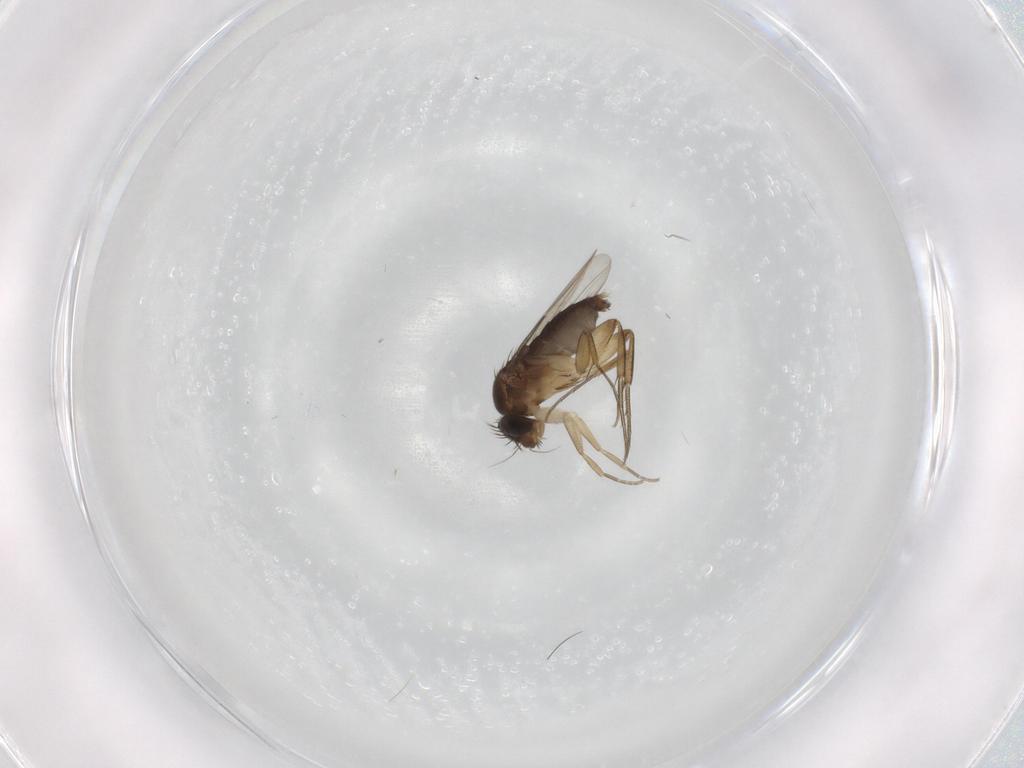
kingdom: Animalia
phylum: Arthropoda
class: Insecta
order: Diptera
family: Phoridae
